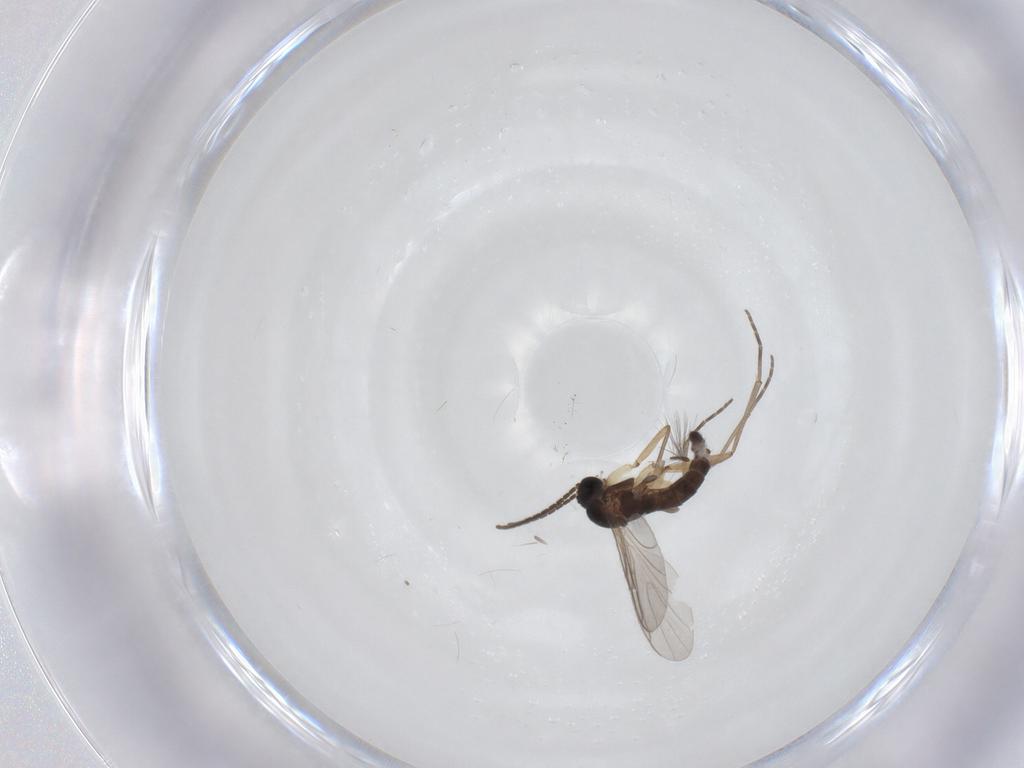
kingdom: Animalia
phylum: Arthropoda
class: Insecta
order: Diptera
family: Sciaridae
